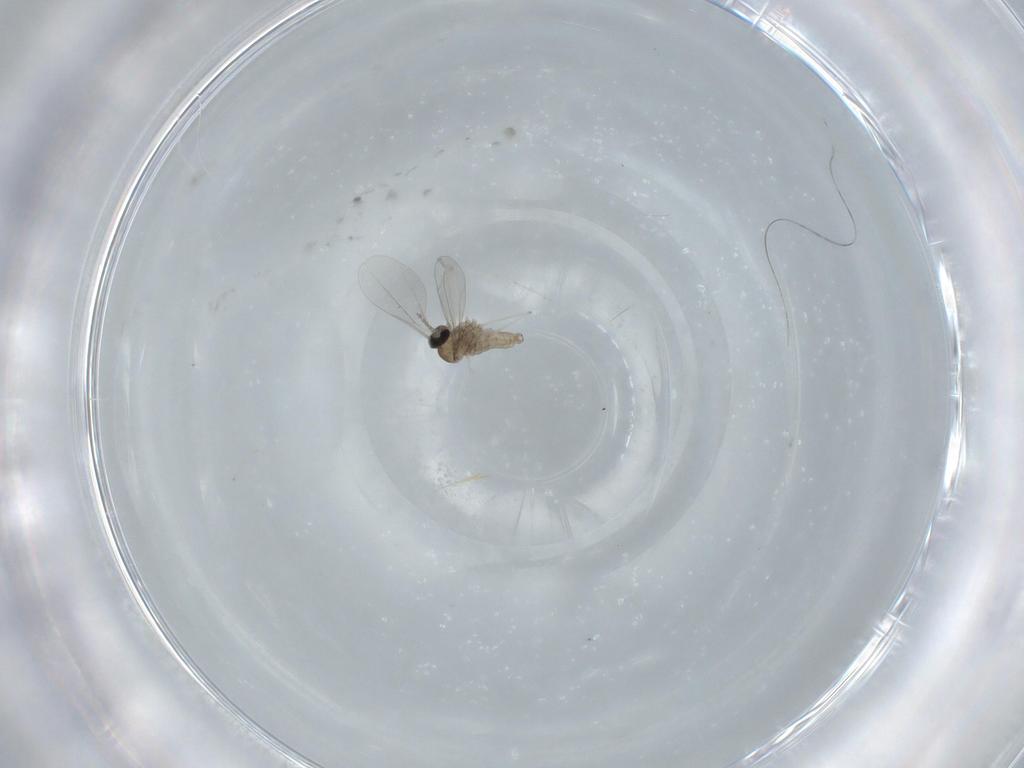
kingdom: Animalia
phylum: Arthropoda
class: Insecta
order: Diptera
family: Cecidomyiidae
